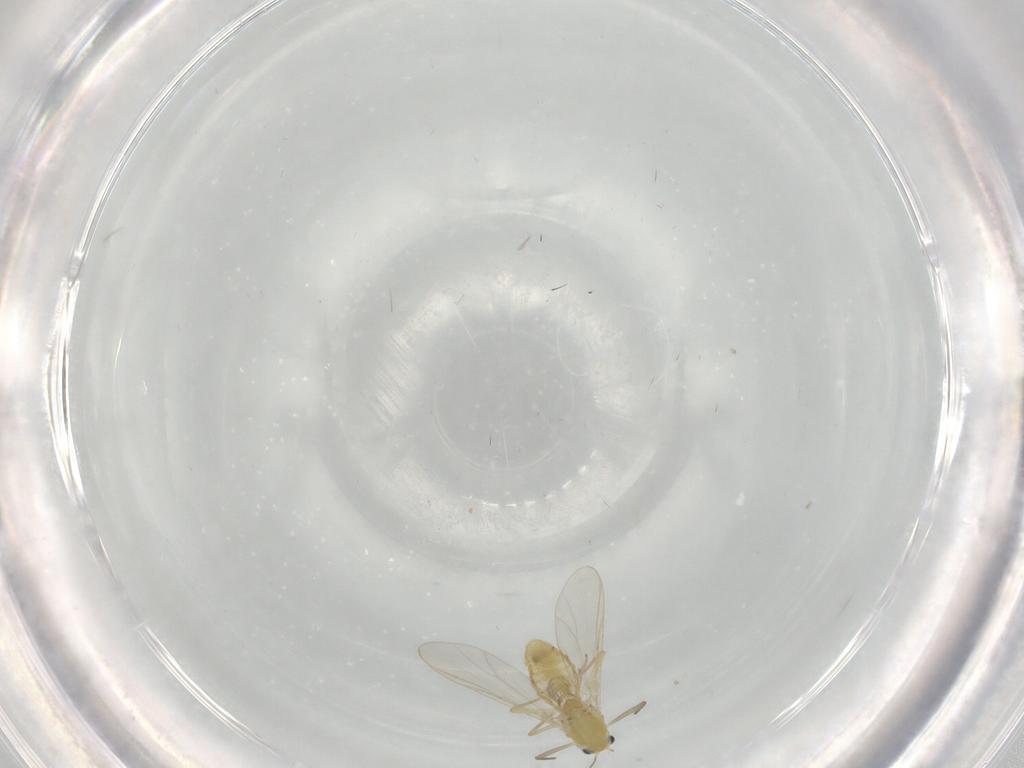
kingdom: Animalia
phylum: Arthropoda
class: Insecta
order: Diptera
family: Chironomidae
